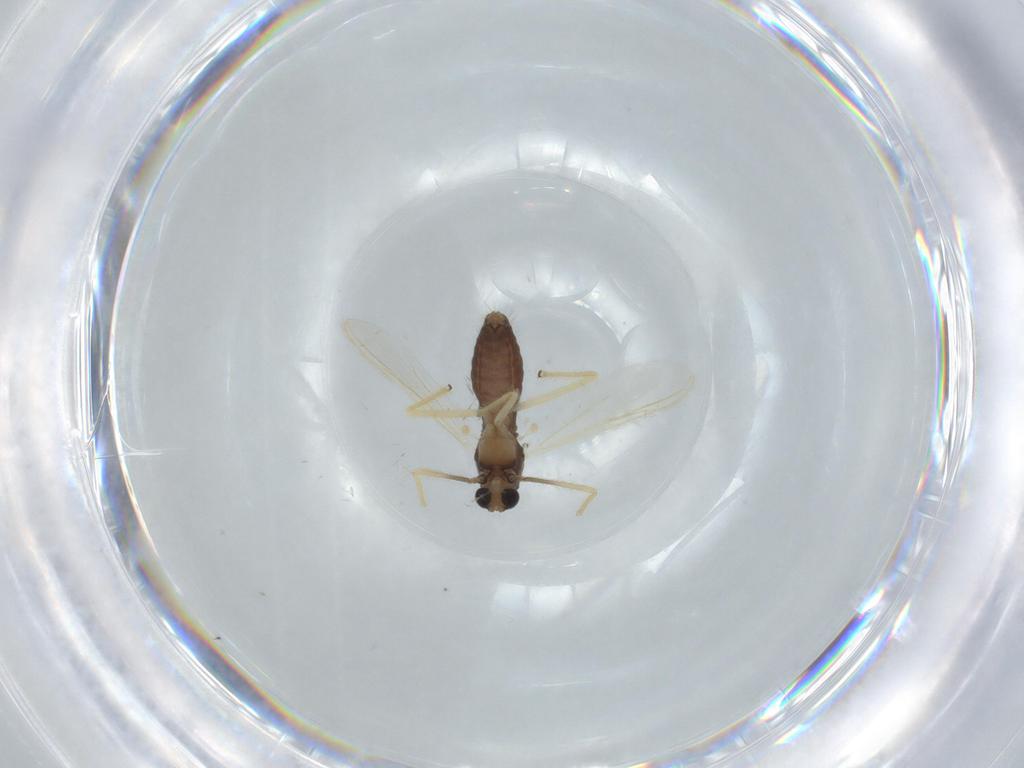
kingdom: Animalia
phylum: Arthropoda
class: Insecta
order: Diptera
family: Chironomidae
